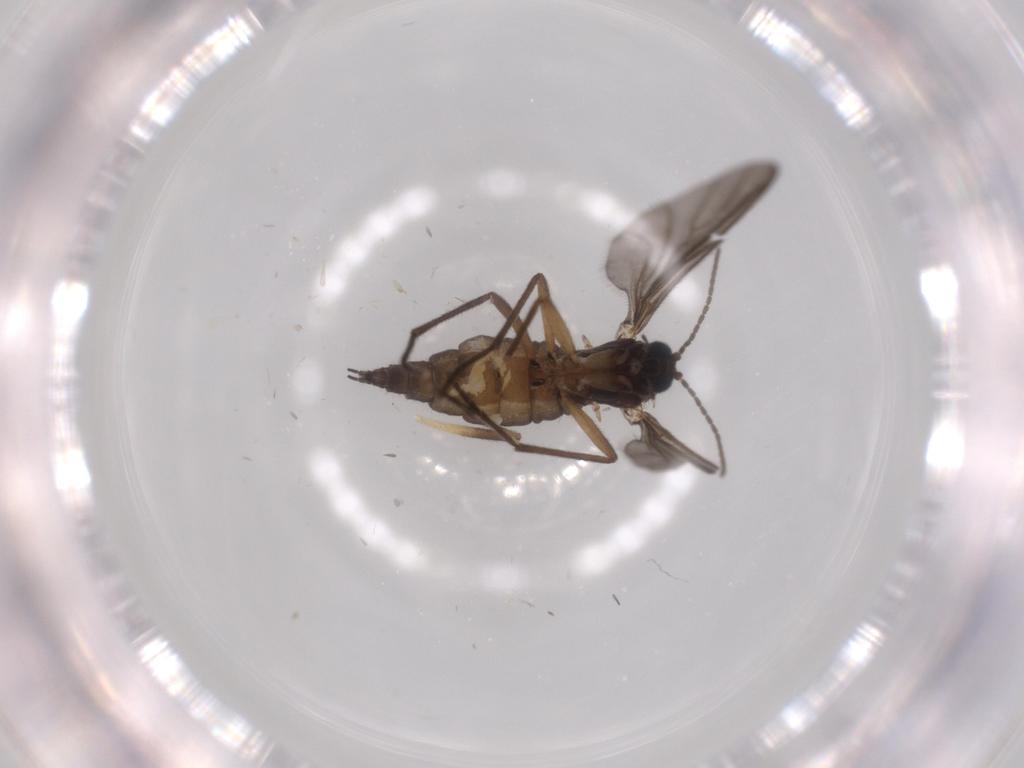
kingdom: Animalia
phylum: Arthropoda
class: Insecta
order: Diptera
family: Sciaridae
